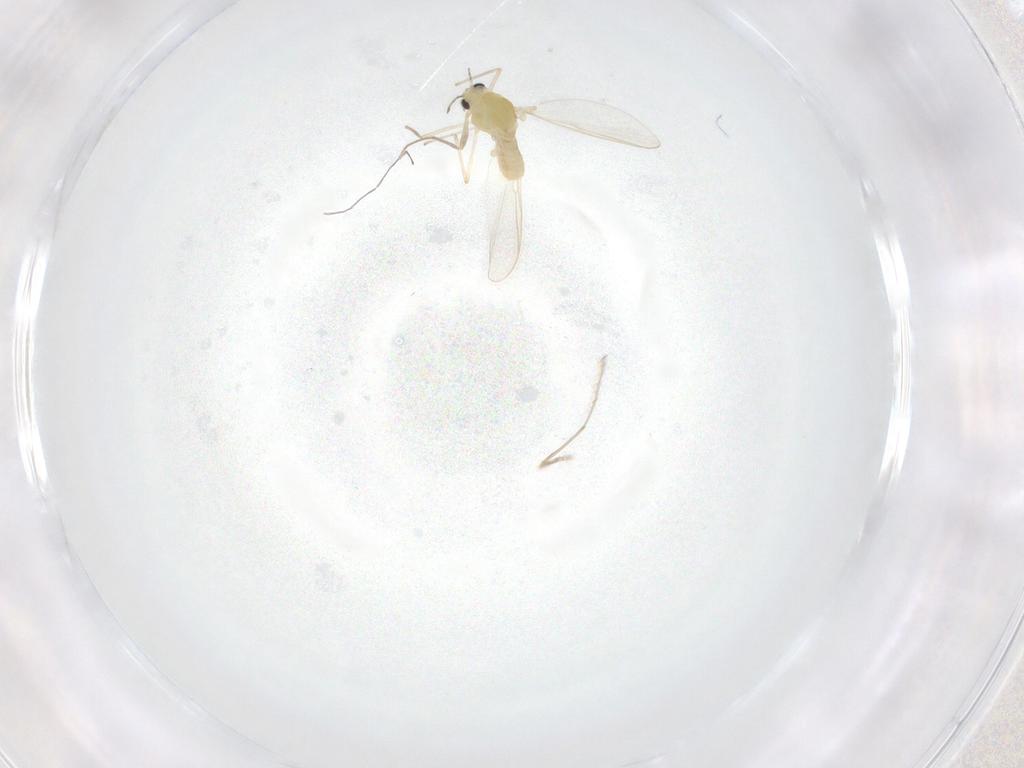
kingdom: Animalia
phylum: Arthropoda
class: Insecta
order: Diptera
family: Chironomidae
